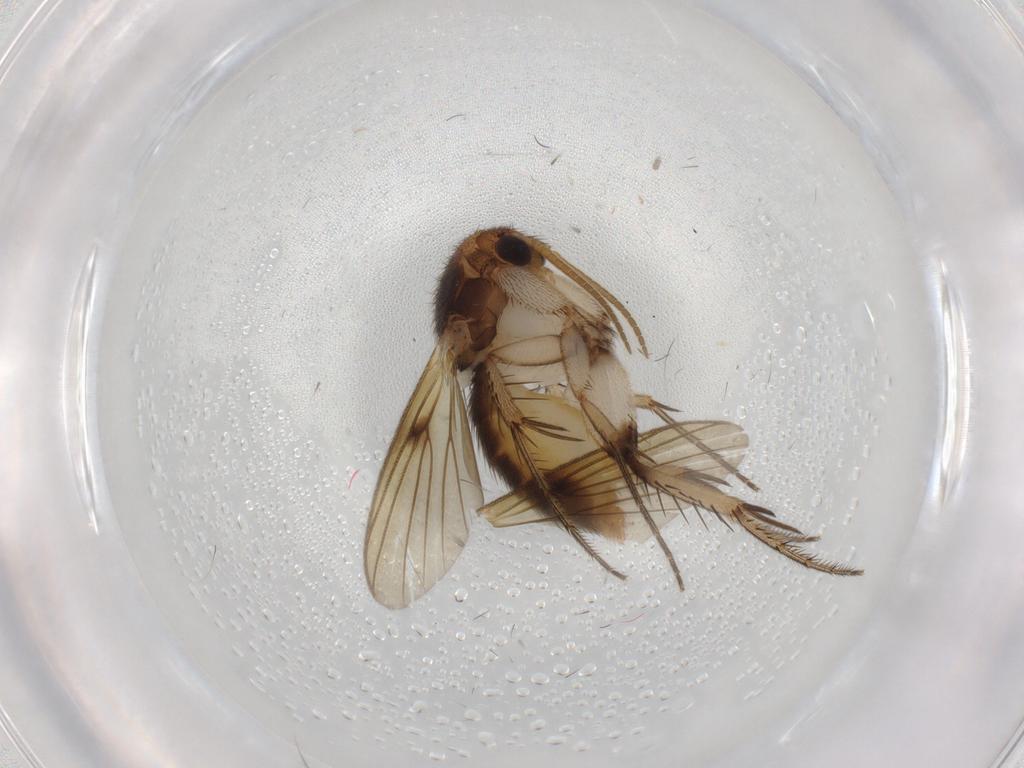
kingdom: Animalia
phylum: Arthropoda
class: Insecta
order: Diptera
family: Mycetophilidae
